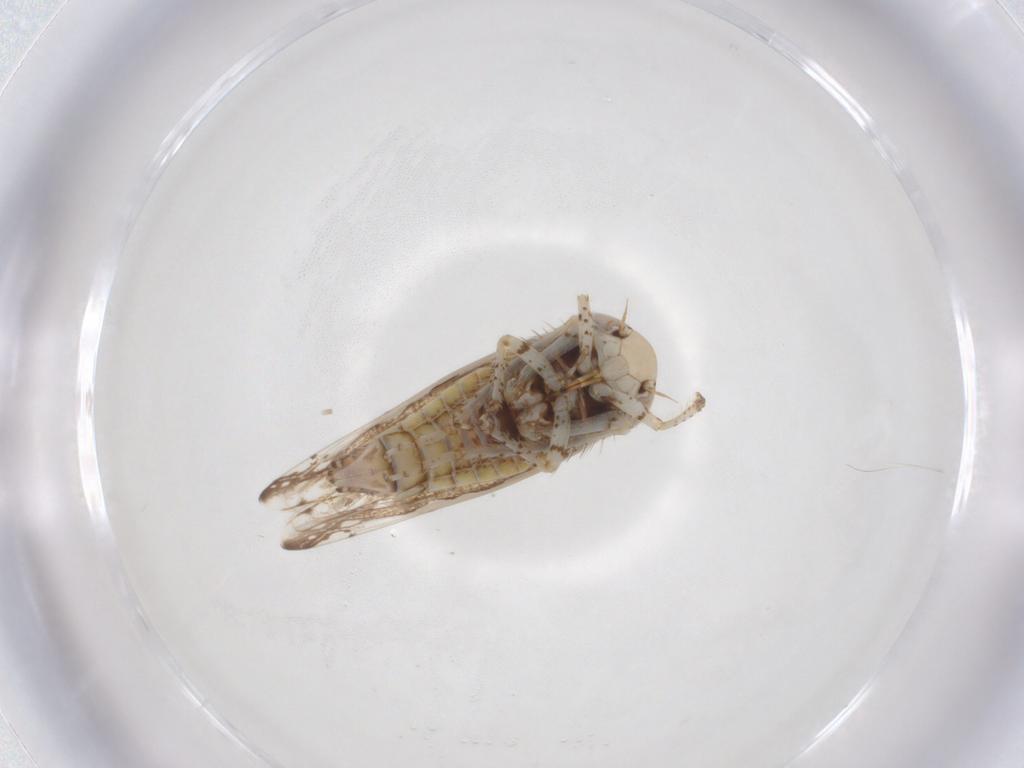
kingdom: Animalia
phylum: Arthropoda
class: Insecta
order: Hemiptera
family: Cicadellidae
